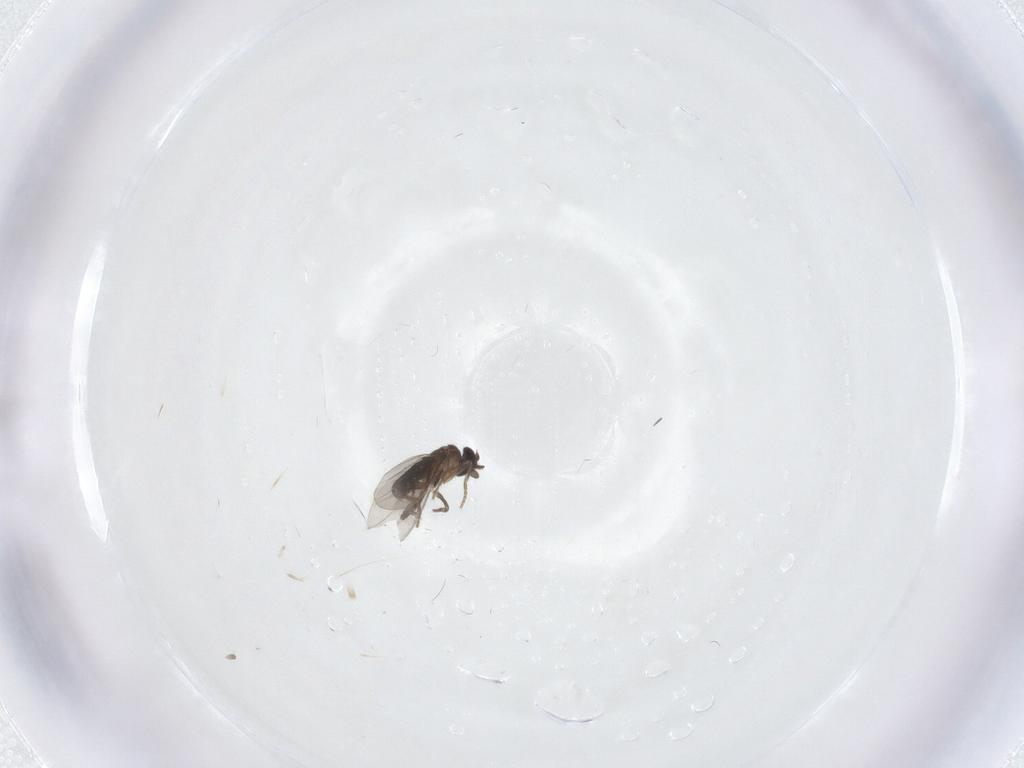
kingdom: Animalia
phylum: Arthropoda
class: Insecta
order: Diptera
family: Phoridae
